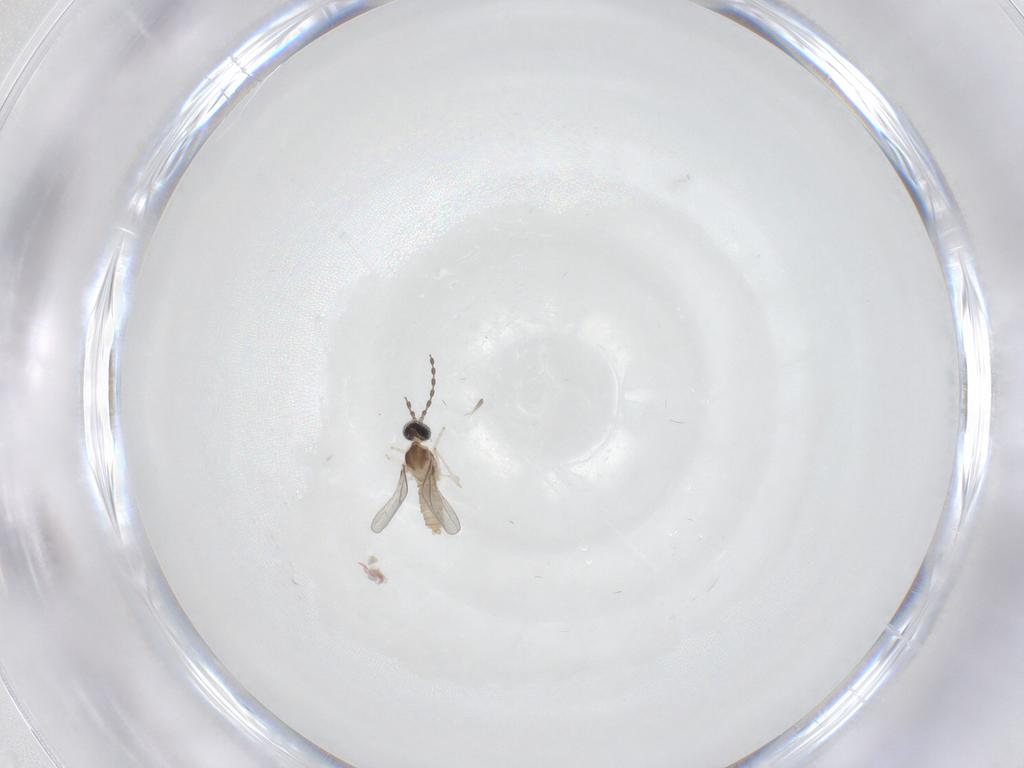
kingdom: Animalia
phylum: Arthropoda
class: Insecta
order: Diptera
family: Cecidomyiidae
